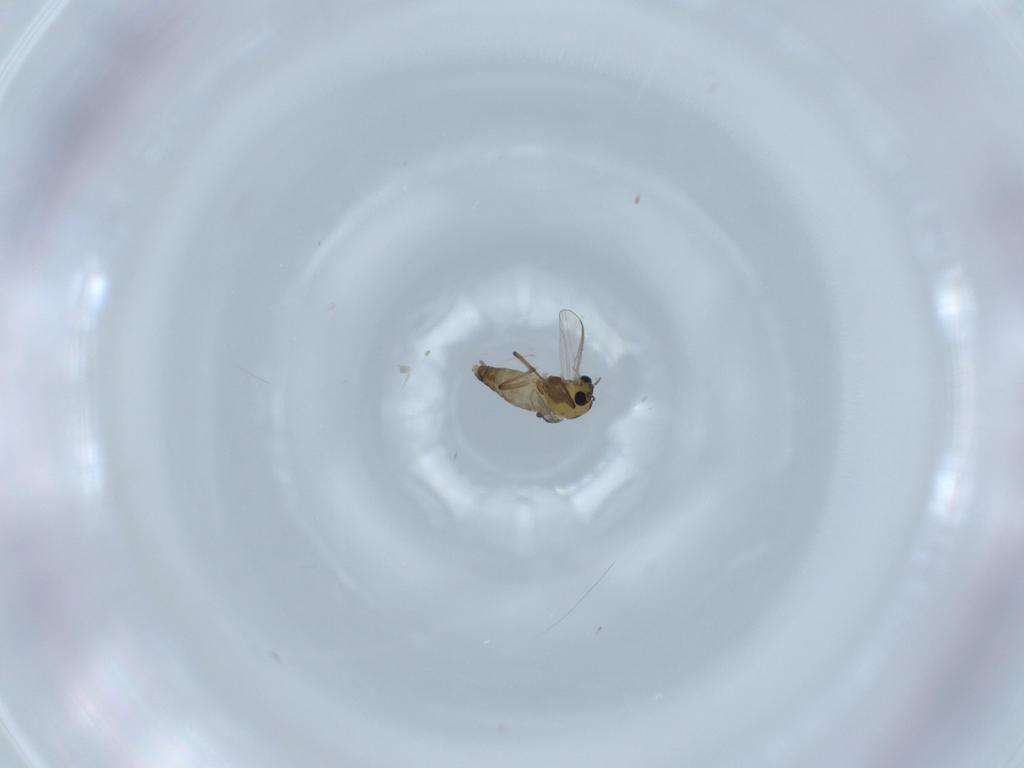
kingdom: Animalia
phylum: Arthropoda
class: Insecta
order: Diptera
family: Chironomidae
